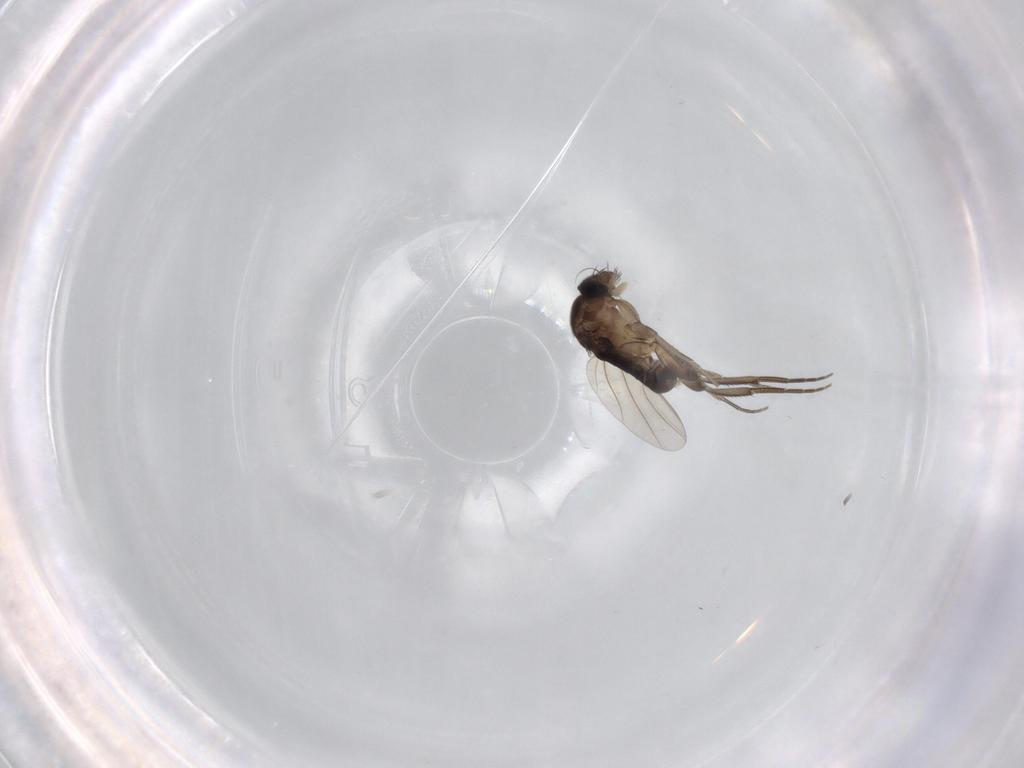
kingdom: Animalia
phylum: Arthropoda
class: Insecta
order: Diptera
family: Phoridae
